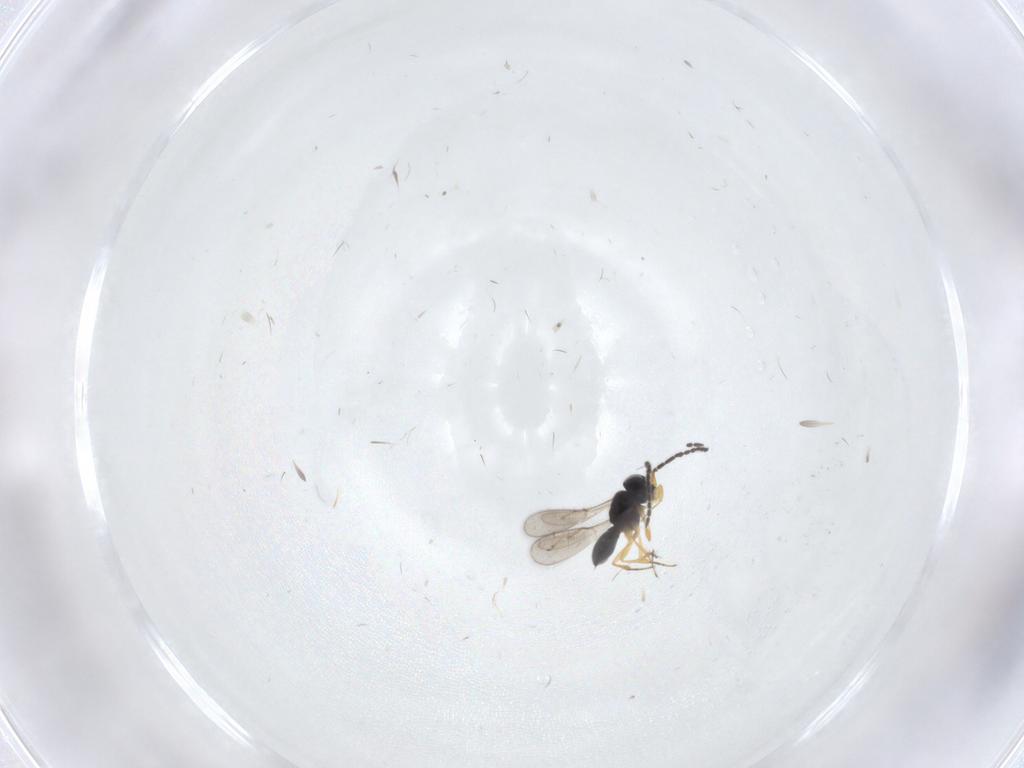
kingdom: Animalia
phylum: Arthropoda
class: Insecta
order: Hymenoptera
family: Scelionidae
